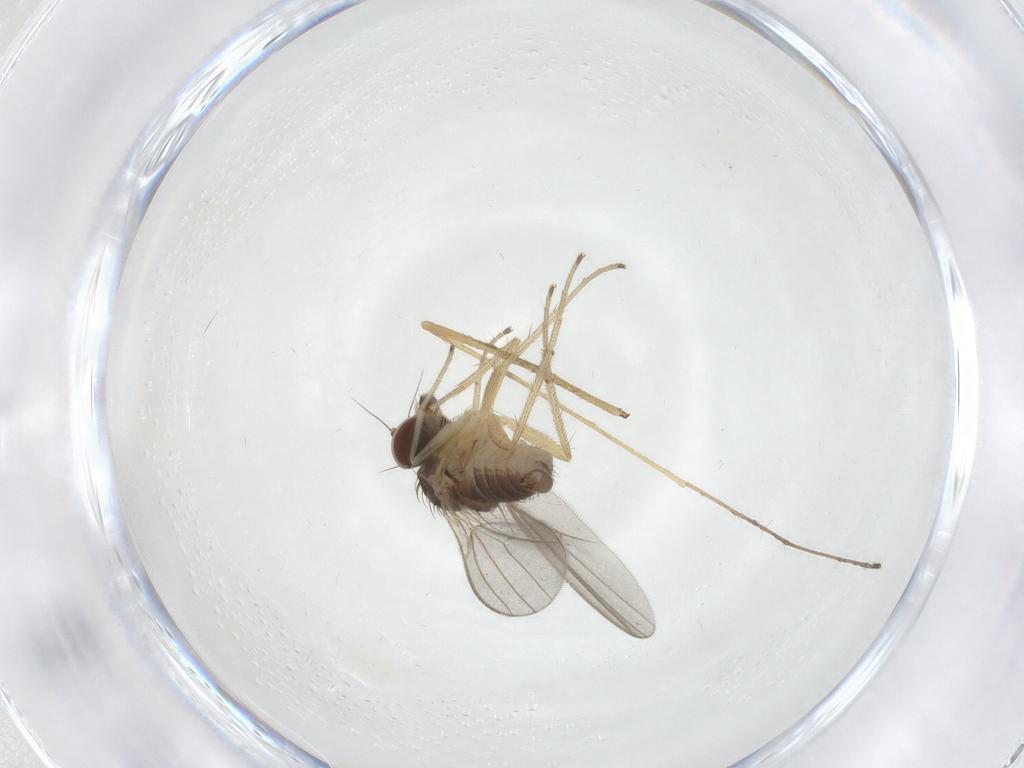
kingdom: Animalia
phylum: Arthropoda
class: Insecta
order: Diptera
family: Dolichopodidae
